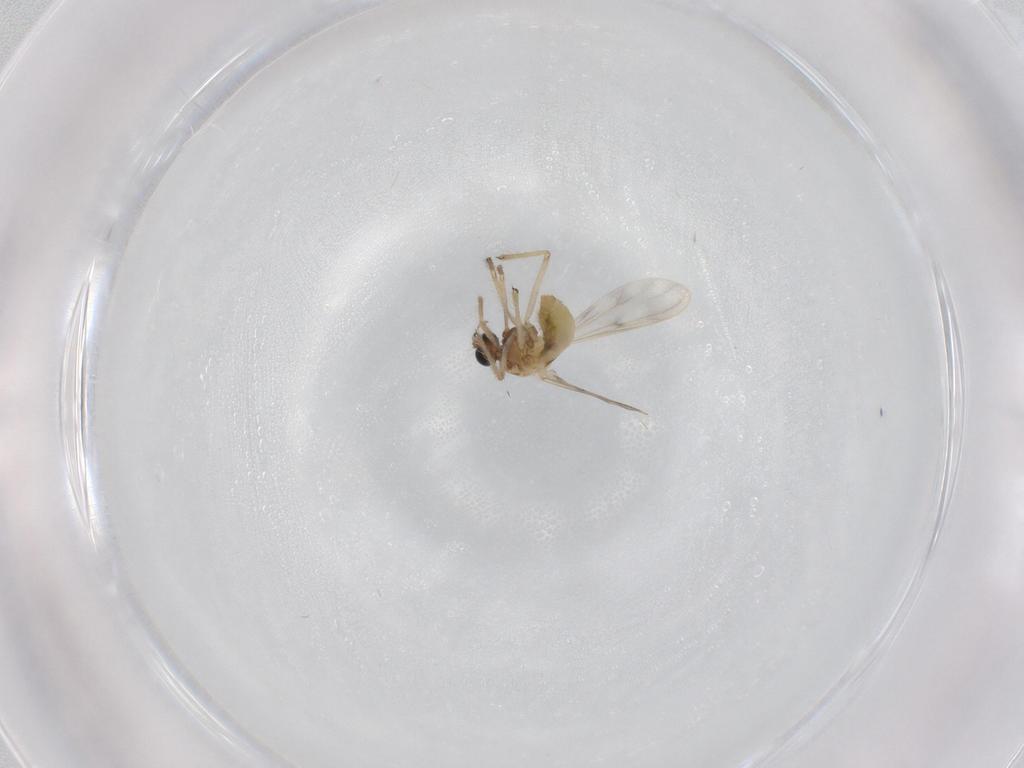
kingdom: Animalia
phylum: Arthropoda
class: Insecta
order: Diptera
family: Chironomidae
